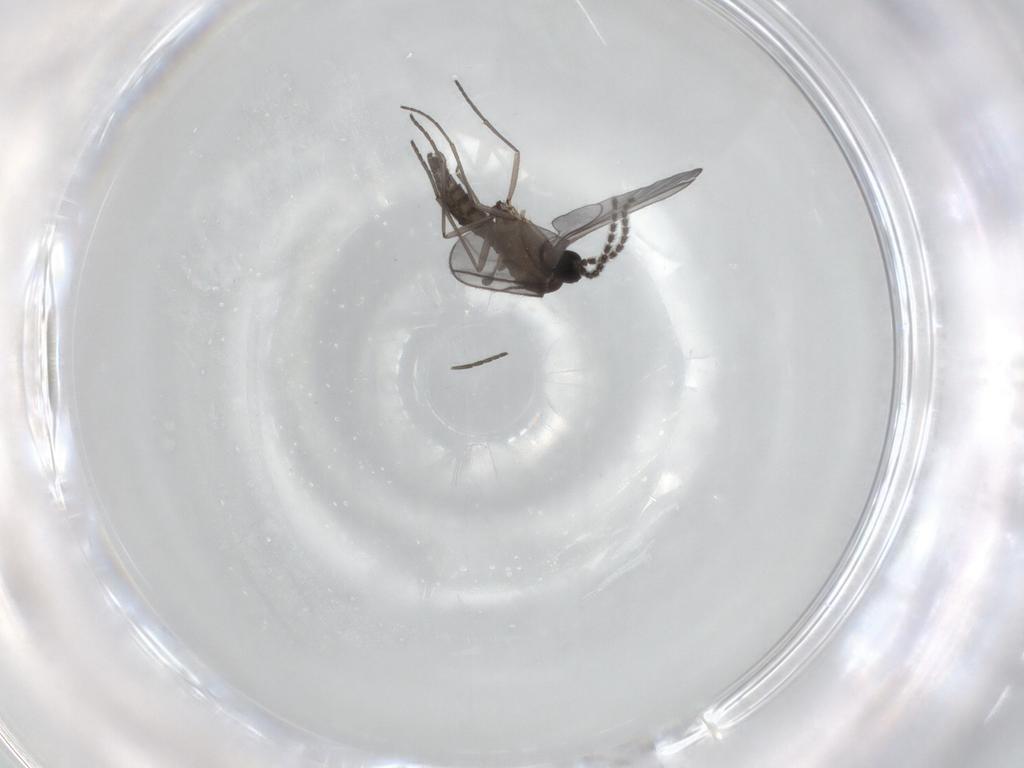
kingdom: Animalia
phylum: Arthropoda
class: Insecta
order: Diptera
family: Sciaridae
